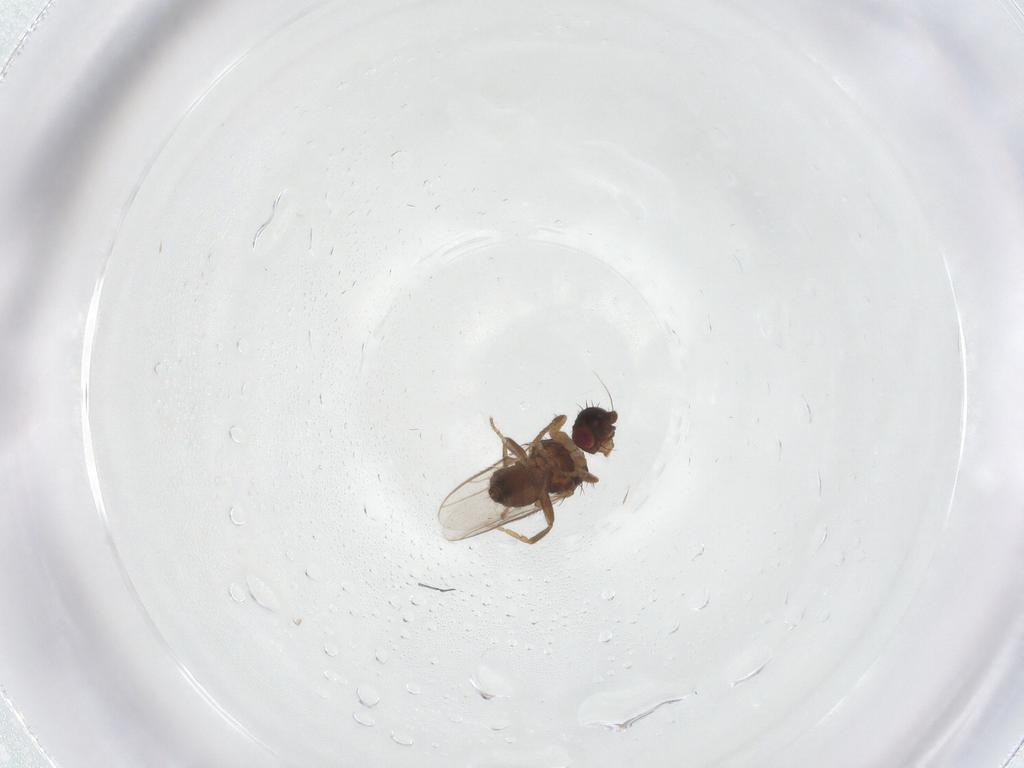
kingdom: Animalia
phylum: Arthropoda
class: Insecta
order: Diptera
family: Sphaeroceridae
